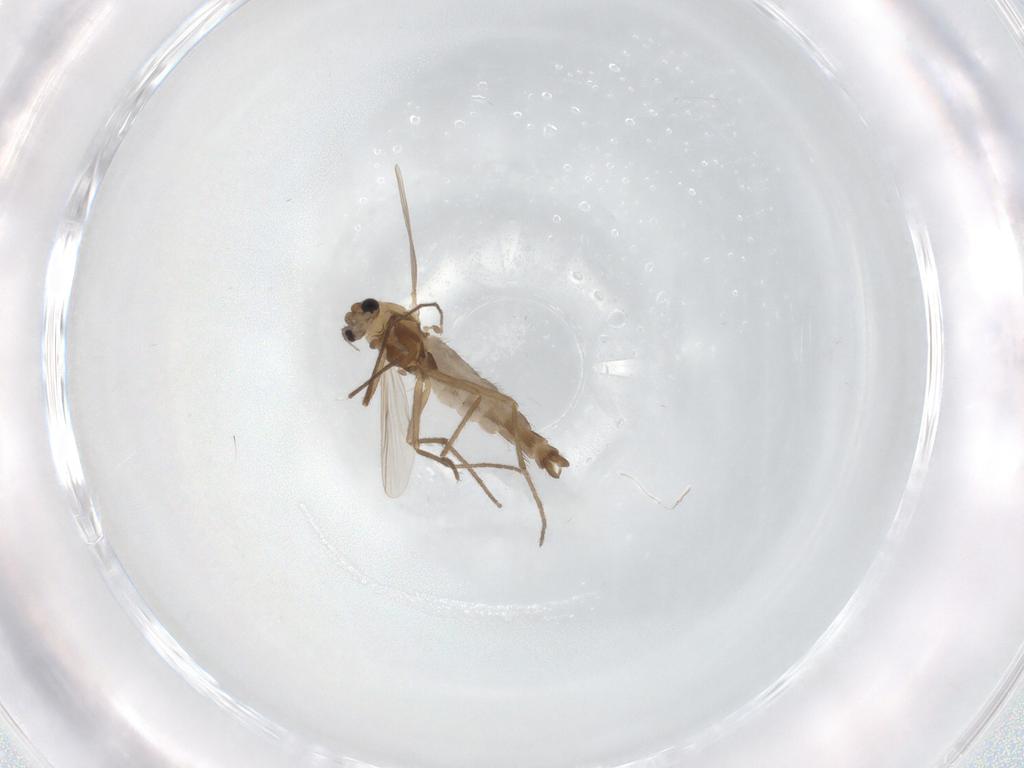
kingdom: Animalia
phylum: Arthropoda
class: Insecta
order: Diptera
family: Chironomidae
